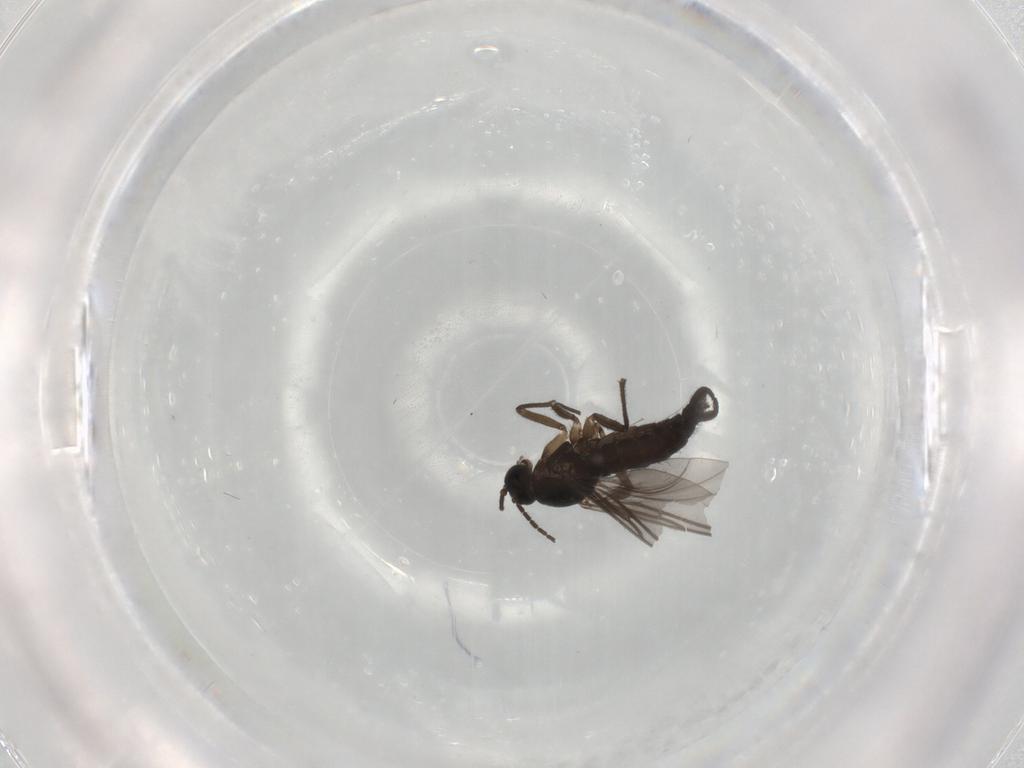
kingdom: Animalia
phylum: Arthropoda
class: Insecta
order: Diptera
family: Sciaridae
